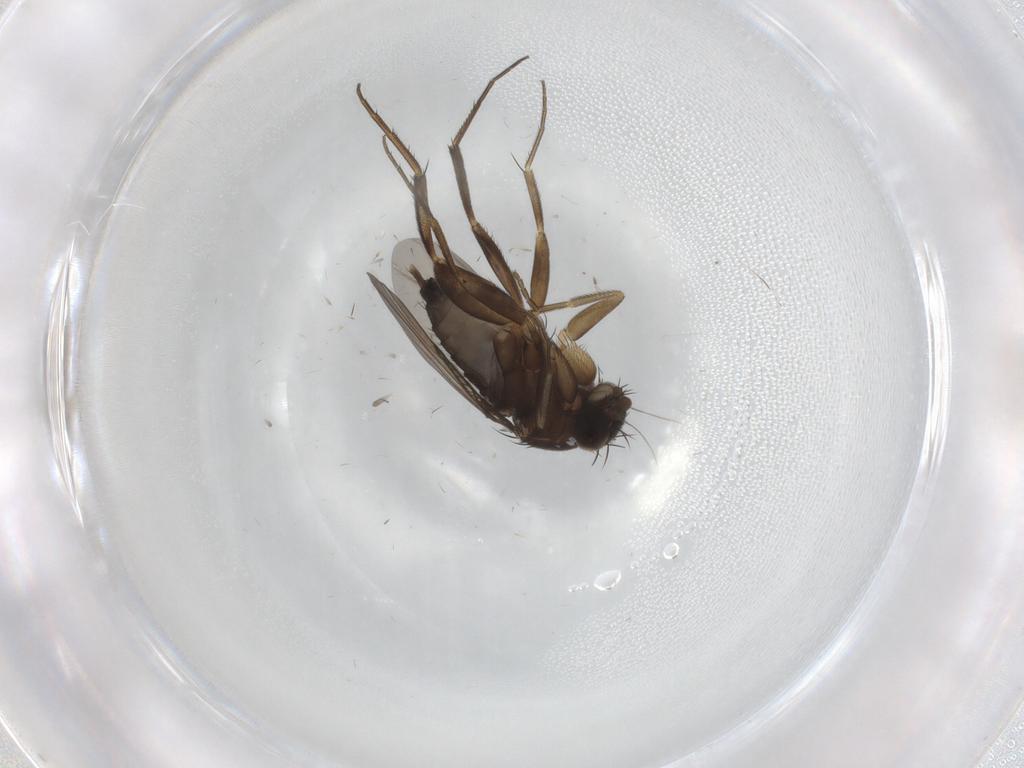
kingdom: Animalia
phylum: Arthropoda
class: Insecta
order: Diptera
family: Phoridae
